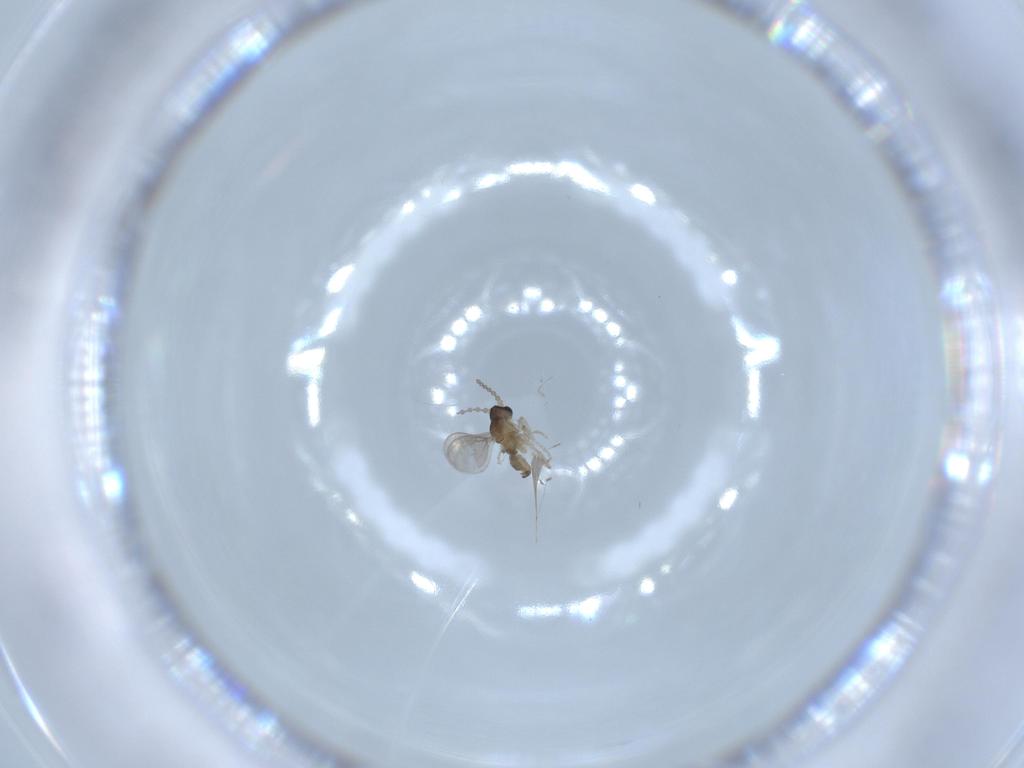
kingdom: Animalia
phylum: Arthropoda
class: Insecta
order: Diptera
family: Cecidomyiidae
